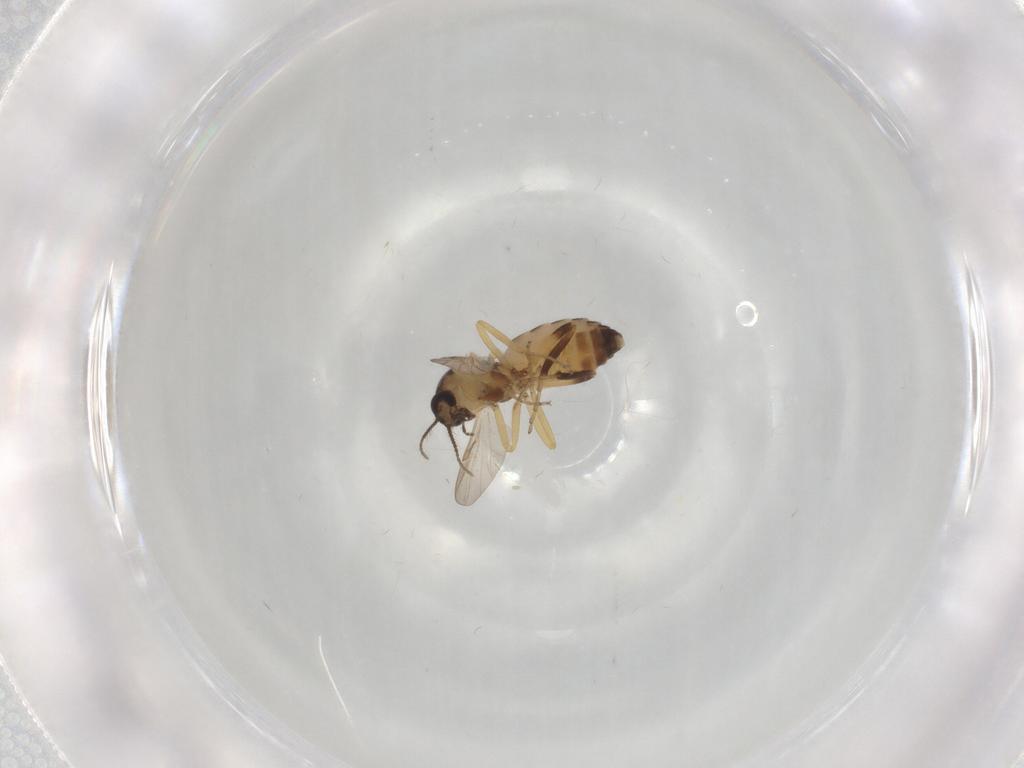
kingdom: Animalia
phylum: Arthropoda
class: Insecta
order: Diptera
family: Ceratopogonidae
